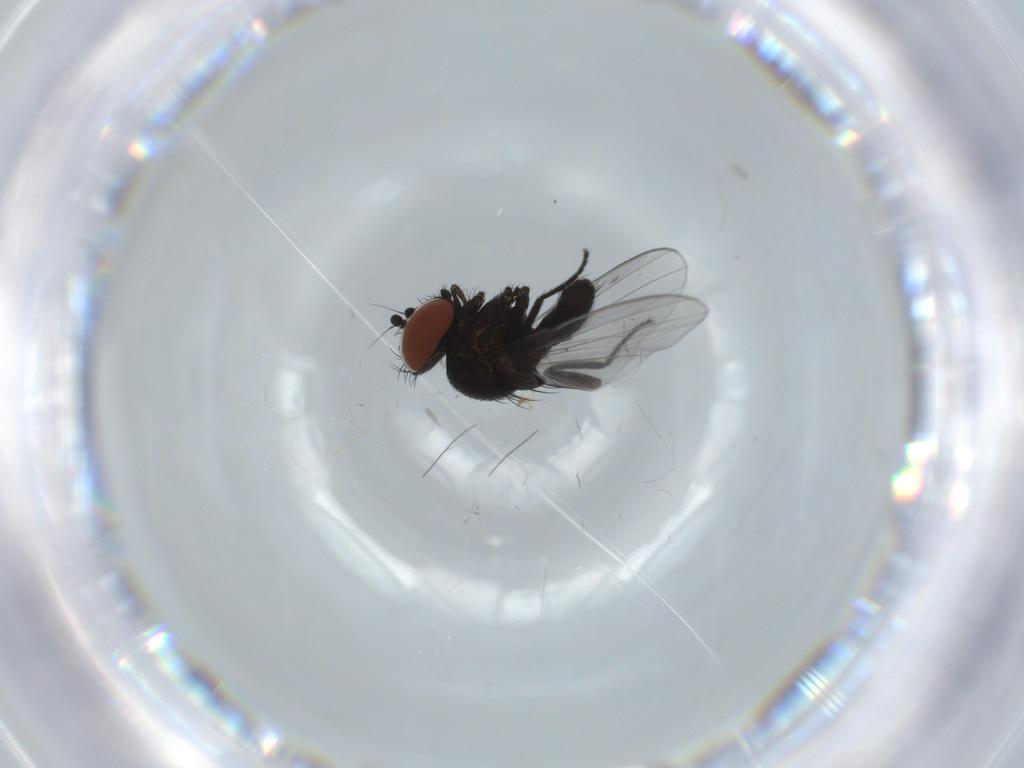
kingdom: Animalia
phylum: Arthropoda
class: Insecta
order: Diptera
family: Milichiidae
